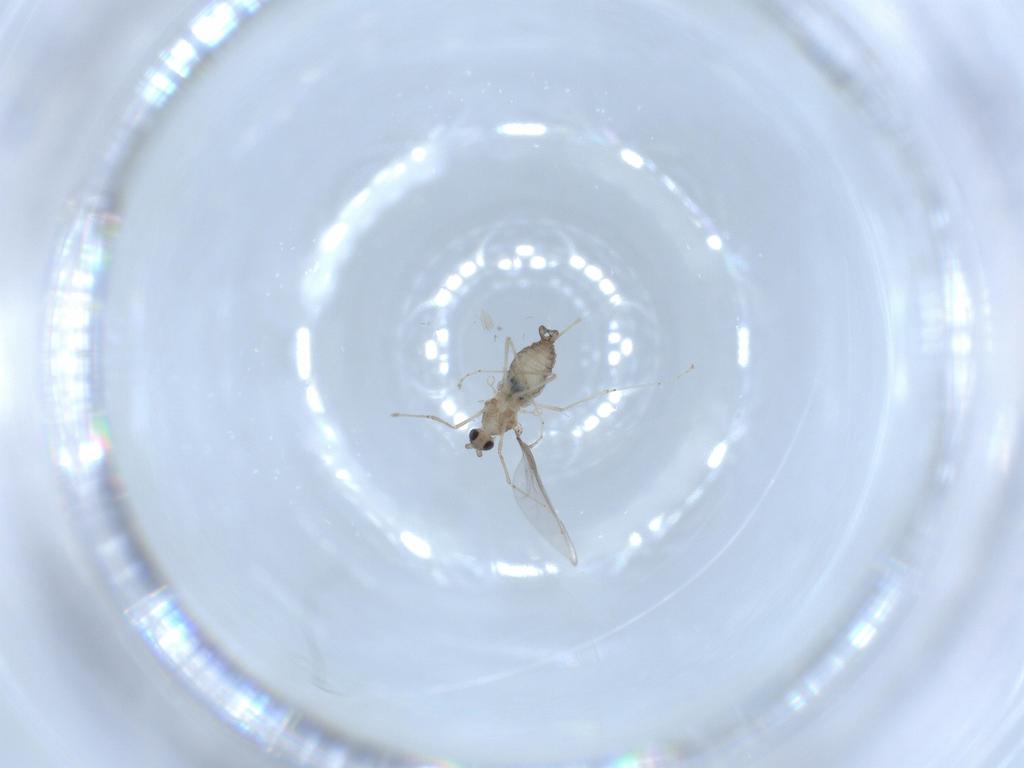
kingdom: Animalia
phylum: Arthropoda
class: Insecta
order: Diptera
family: Cecidomyiidae
